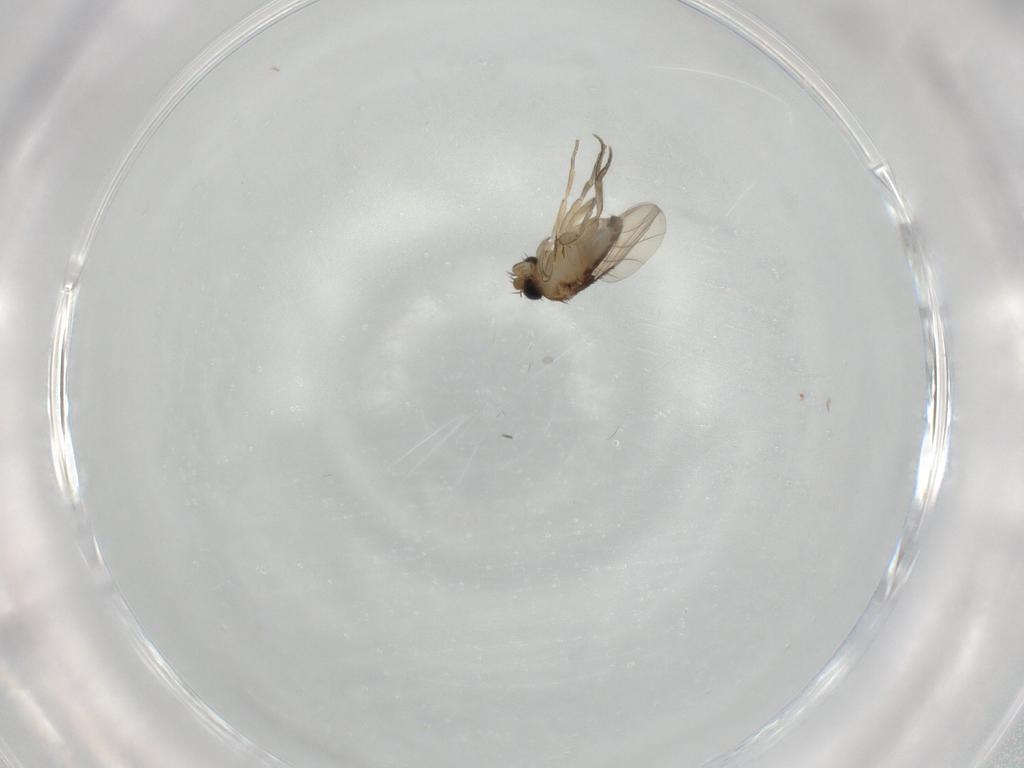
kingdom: Animalia
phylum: Arthropoda
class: Insecta
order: Diptera
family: Phoridae
